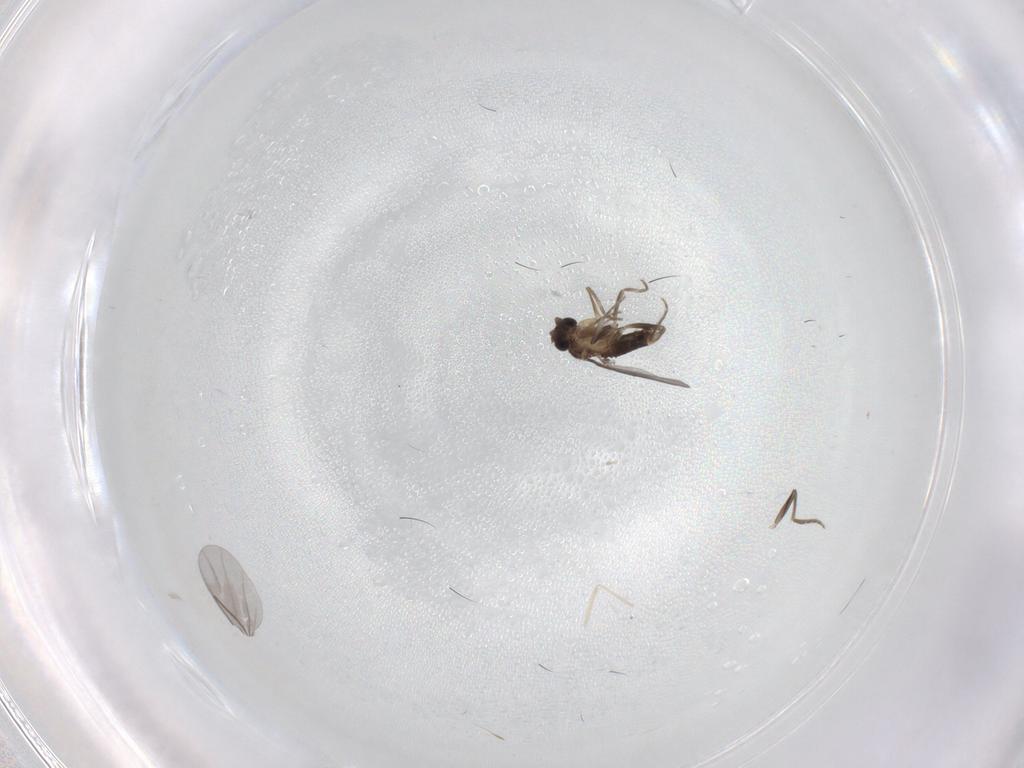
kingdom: Animalia
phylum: Arthropoda
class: Insecta
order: Diptera
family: Cecidomyiidae
